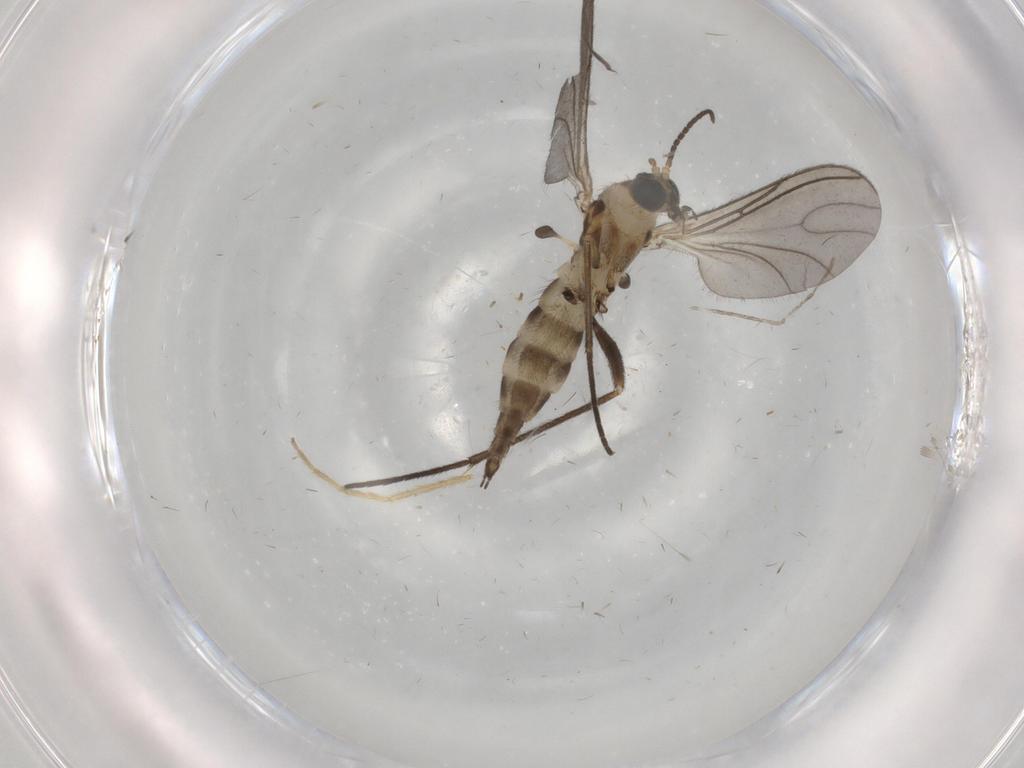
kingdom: Animalia
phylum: Arthropoda
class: Insecta
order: Diptera
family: Sciaridae
